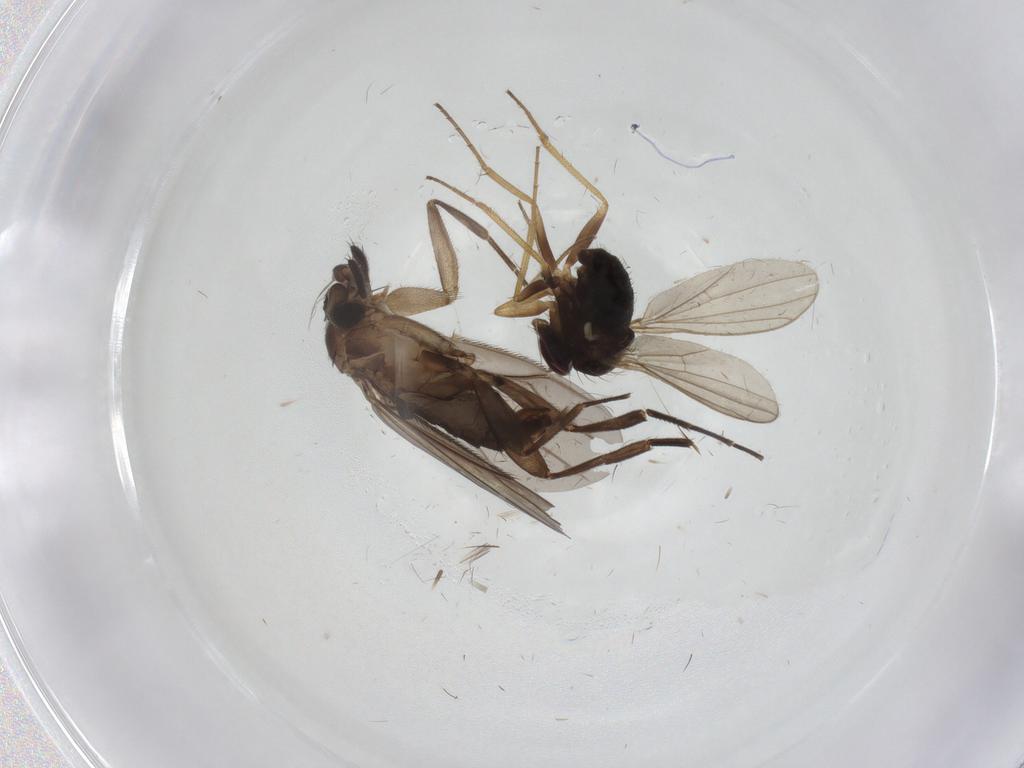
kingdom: Animalia
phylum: Arthropoda
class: Insecta
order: Diptera
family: Phoridae
